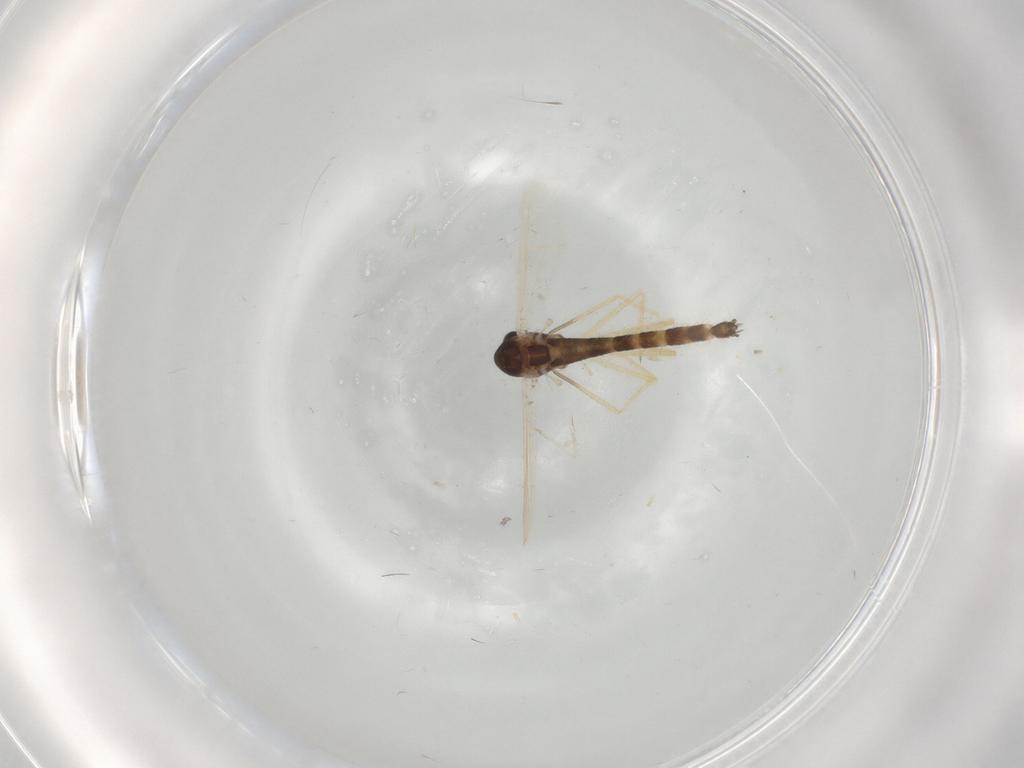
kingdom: Animalia
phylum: Arthropoda
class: Insecta
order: Diptera
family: Chironomidae
